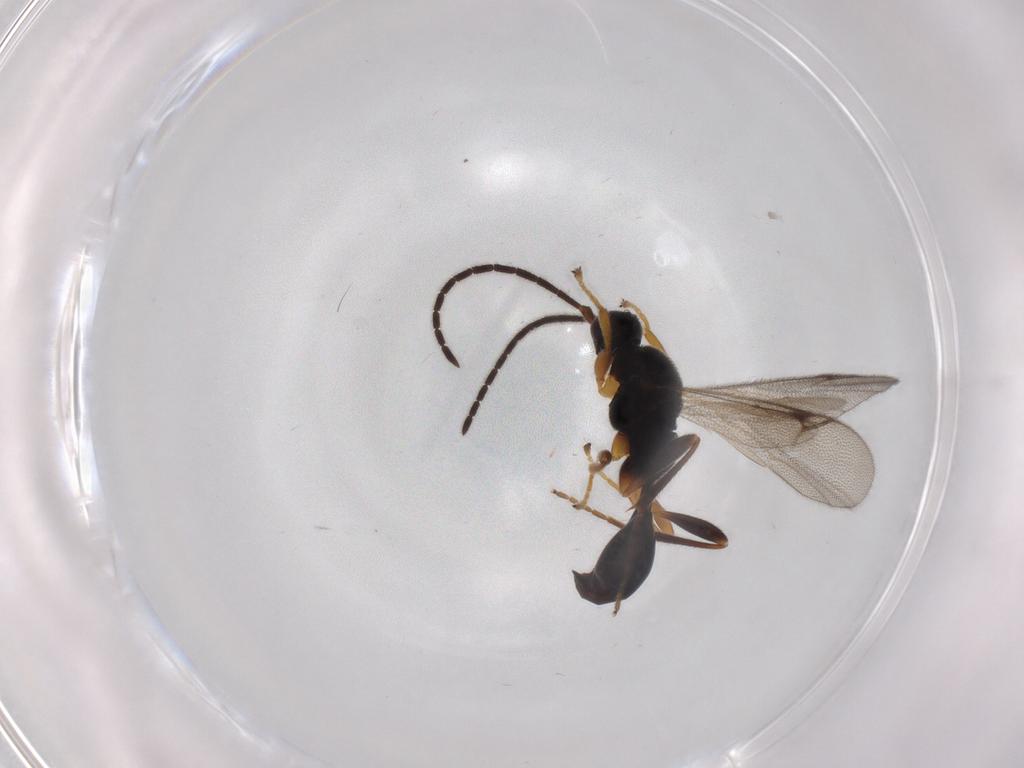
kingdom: Animalia
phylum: Arthropoda
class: Insecta
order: Hymenoptera
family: Proctotrupidae
